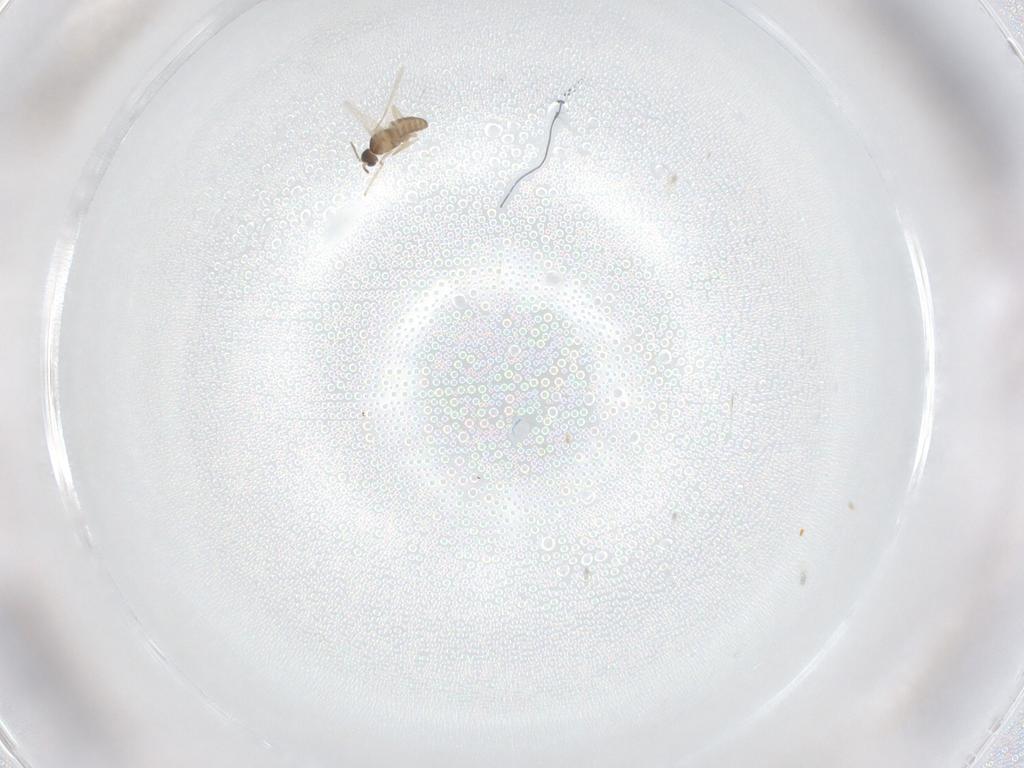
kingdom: Animalia
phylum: Arthropoda
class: Insecta
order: Diptera
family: Cecidomyiidae
